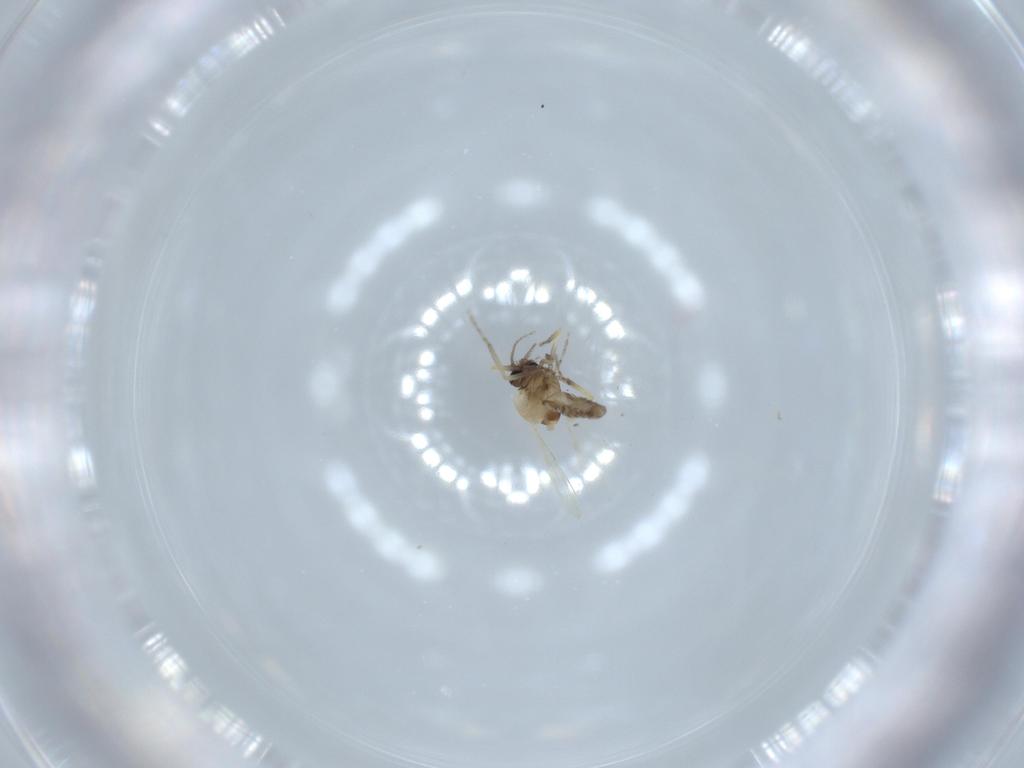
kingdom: Animalia
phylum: Arthropoda
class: Insecta
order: Diptera
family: Ceratopogonidae
